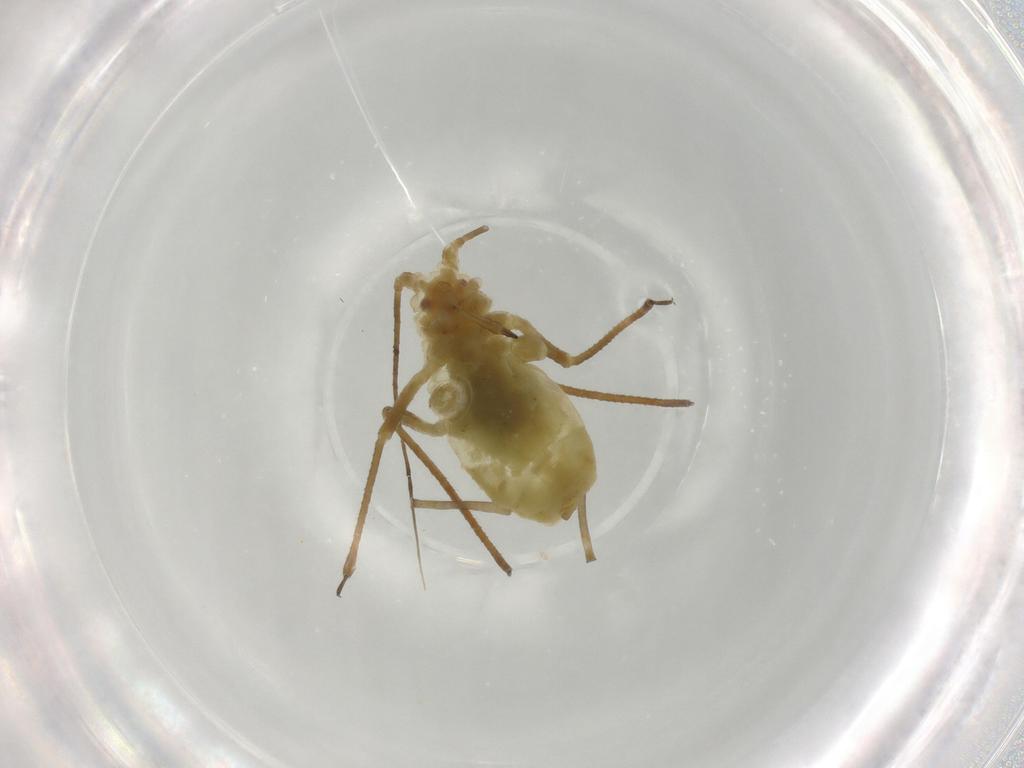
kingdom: Animalia
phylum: Arthropoda
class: Insecta
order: Hemiptera
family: Aphididae
